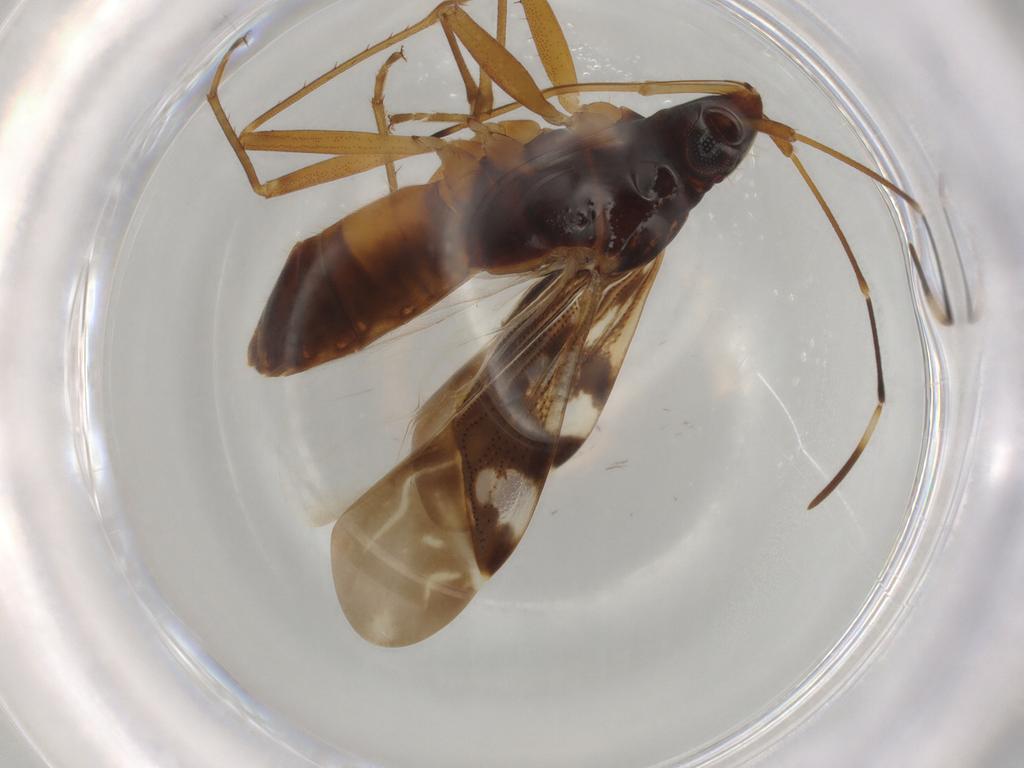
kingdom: Animalia
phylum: Arthropoda
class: Insecta
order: Hemiptera
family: Rhyparochromidae
